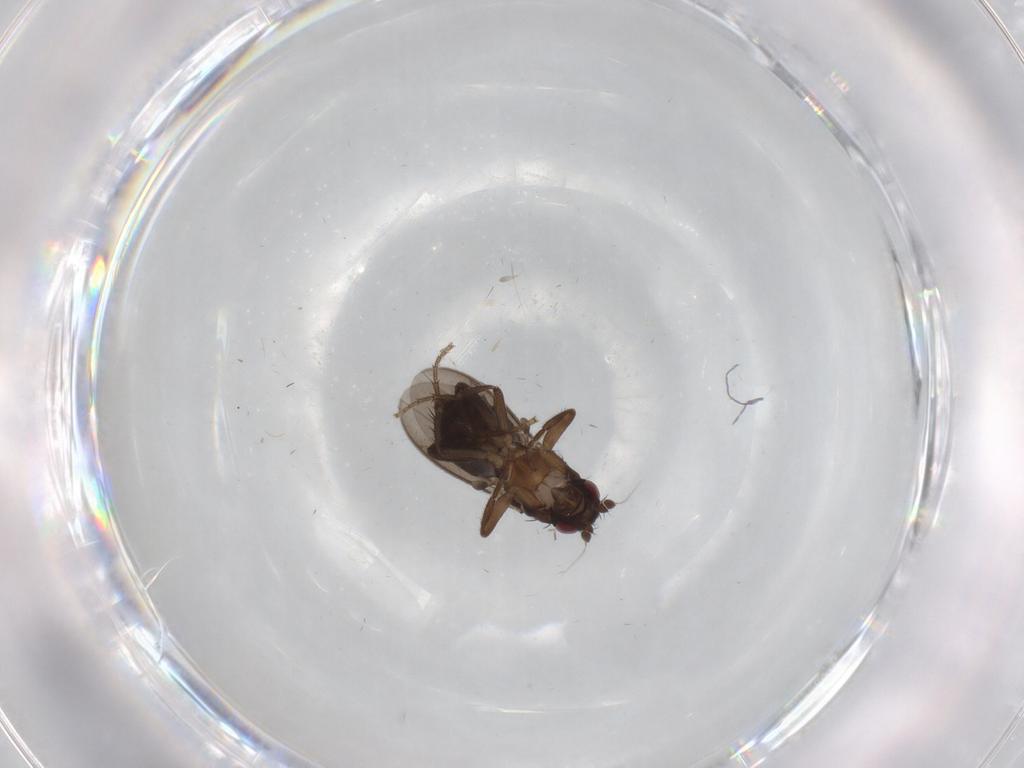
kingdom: Animalia
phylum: Arthropoda
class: Insecta
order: Diptera
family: Sphaeroceridae
